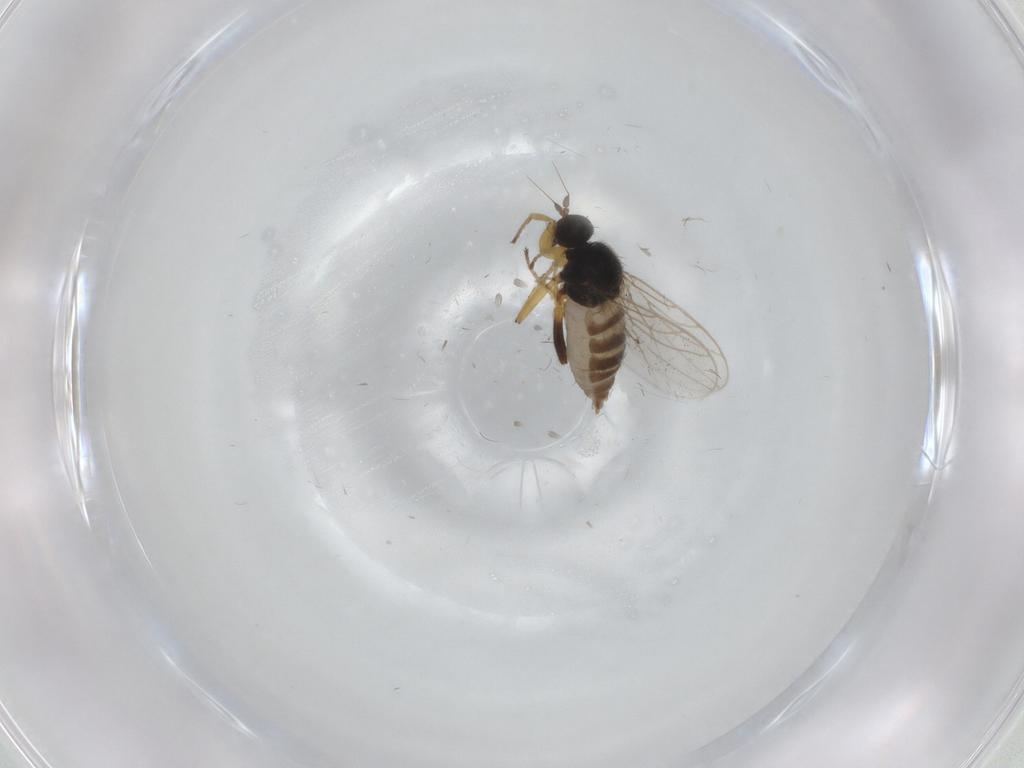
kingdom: Animalia
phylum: Arthropoda
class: Insecta
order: Diptera
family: Hybotidae
